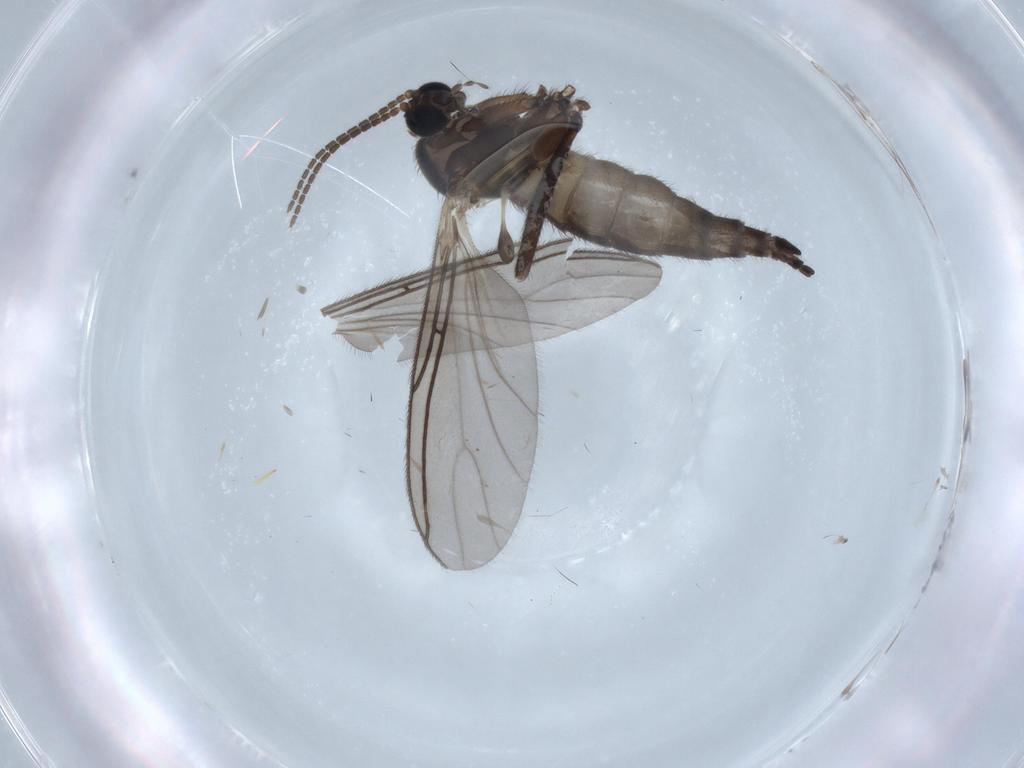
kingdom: Animalia
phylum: Arthropoda
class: Insecta
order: Diptera
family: Sciaridae
